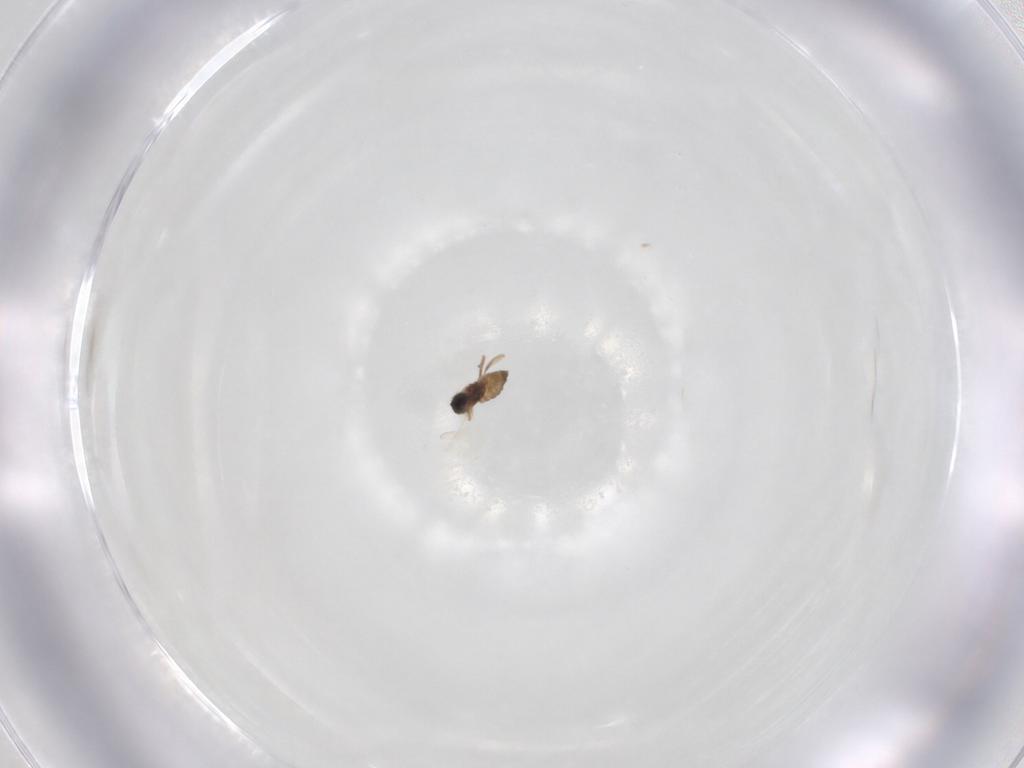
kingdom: Animalia
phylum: Arthropoda
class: Insecta
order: Diptera
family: Cecidomyiidae
